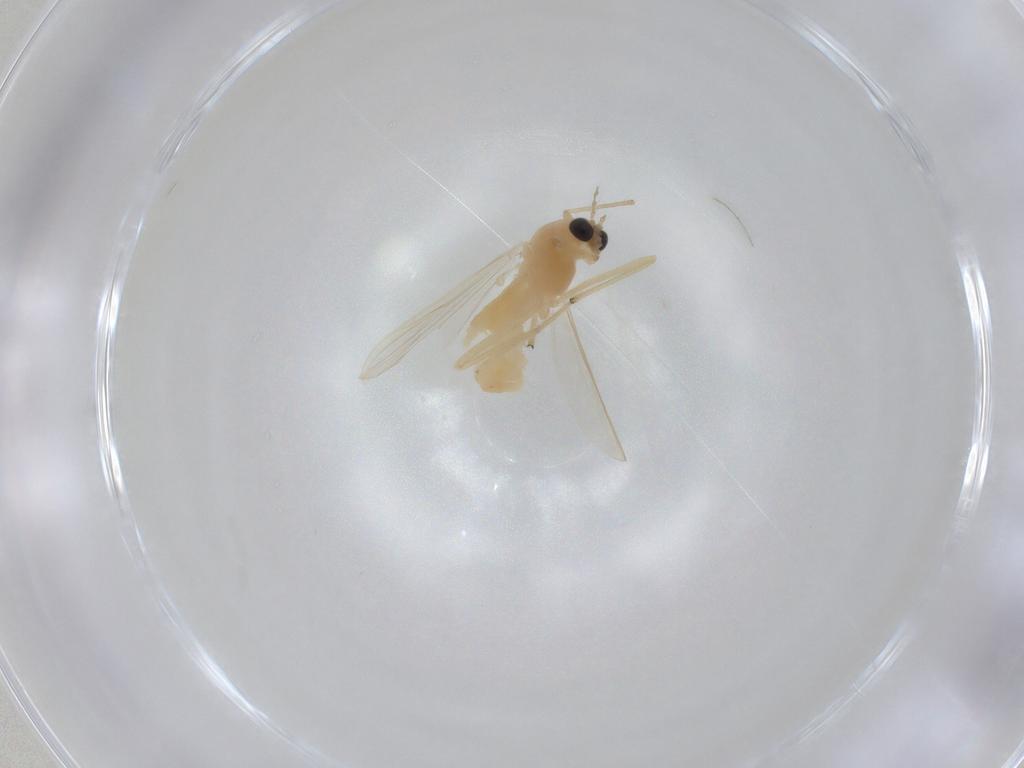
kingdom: Animalia
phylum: Arthropoda
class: Insecta
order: Diptera
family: Chironomidae
